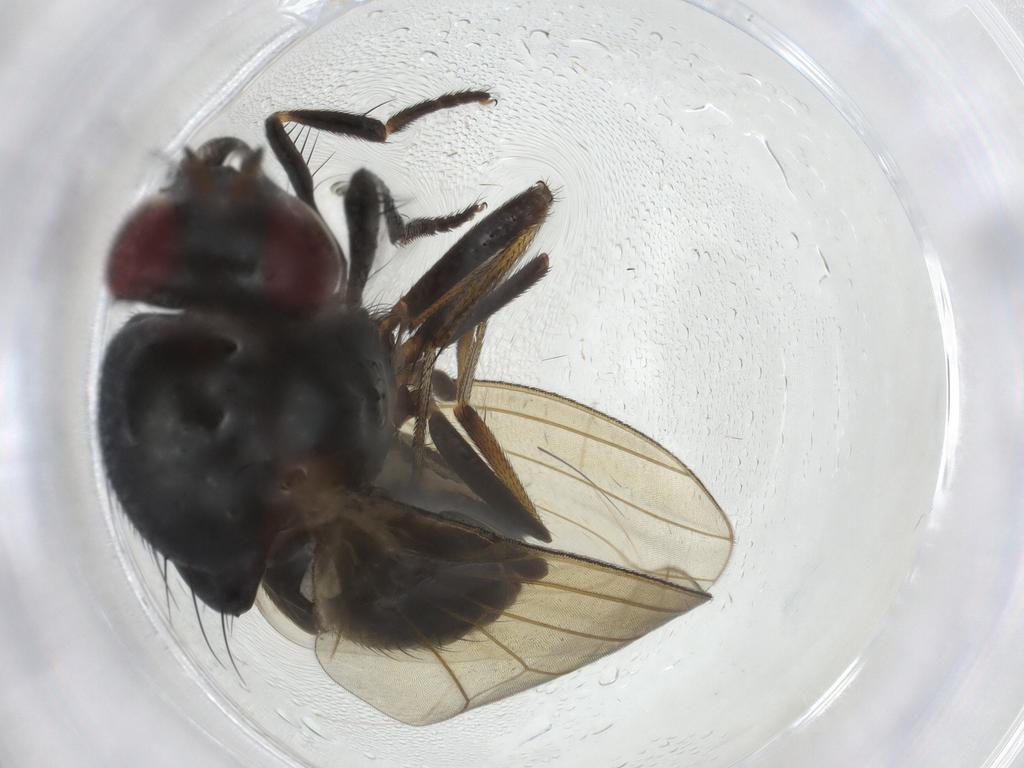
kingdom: Animalia
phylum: Arthropoda
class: Insecta
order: Diptera
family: Lauxaniidae
